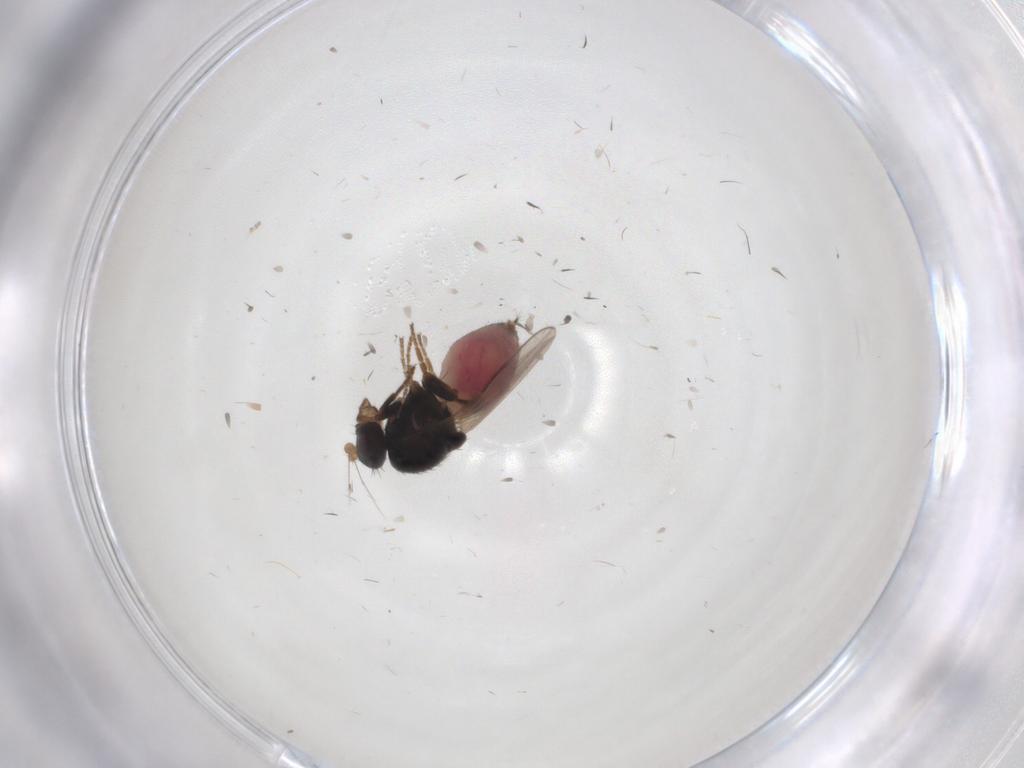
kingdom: Animalia
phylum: Arthropoda
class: Insecta
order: Diptera
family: Sphaeroceridae
